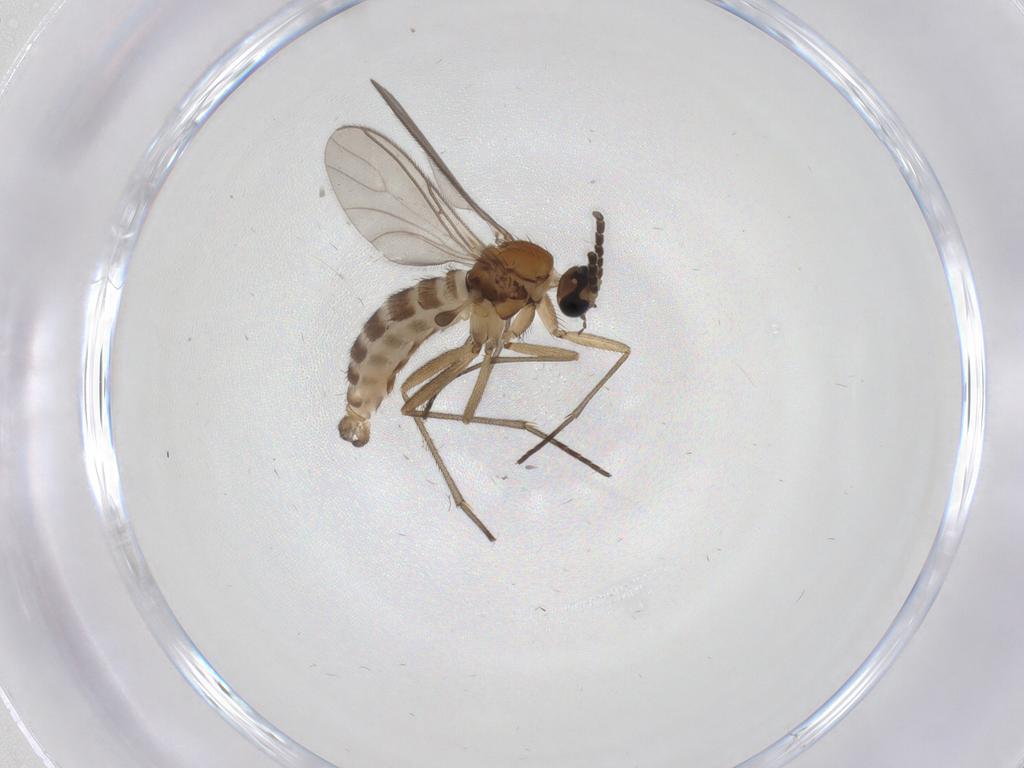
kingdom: Animalia
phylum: Arthropoda
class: Insecta
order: Diptera
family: Sciaridae
